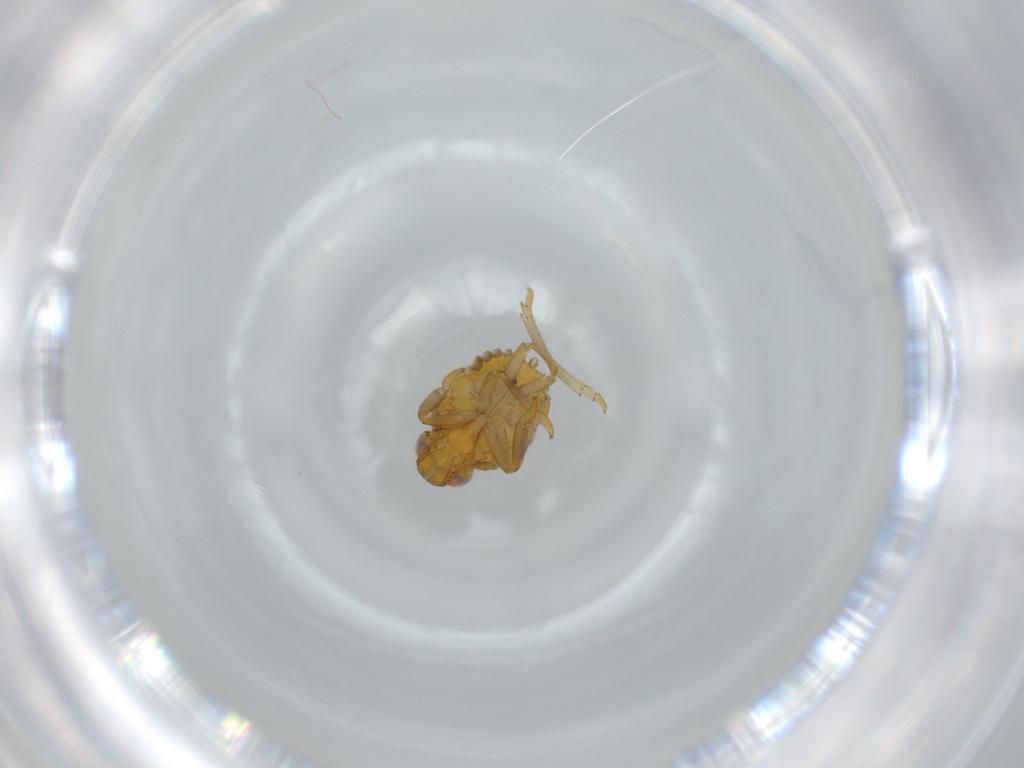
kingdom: Animalia
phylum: Arthropoda
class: Insecta
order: Hemiptera
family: Issidae
